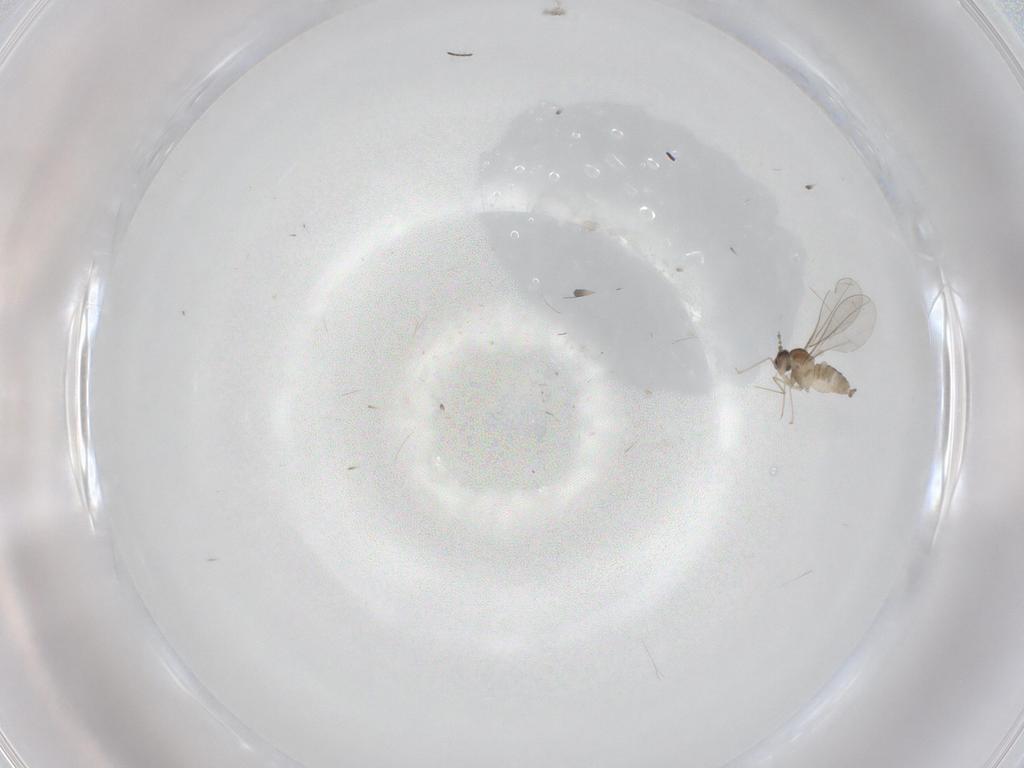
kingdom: Animalia
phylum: Arthropoda
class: Insecta
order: Diptera
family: Cecidomyiidae
